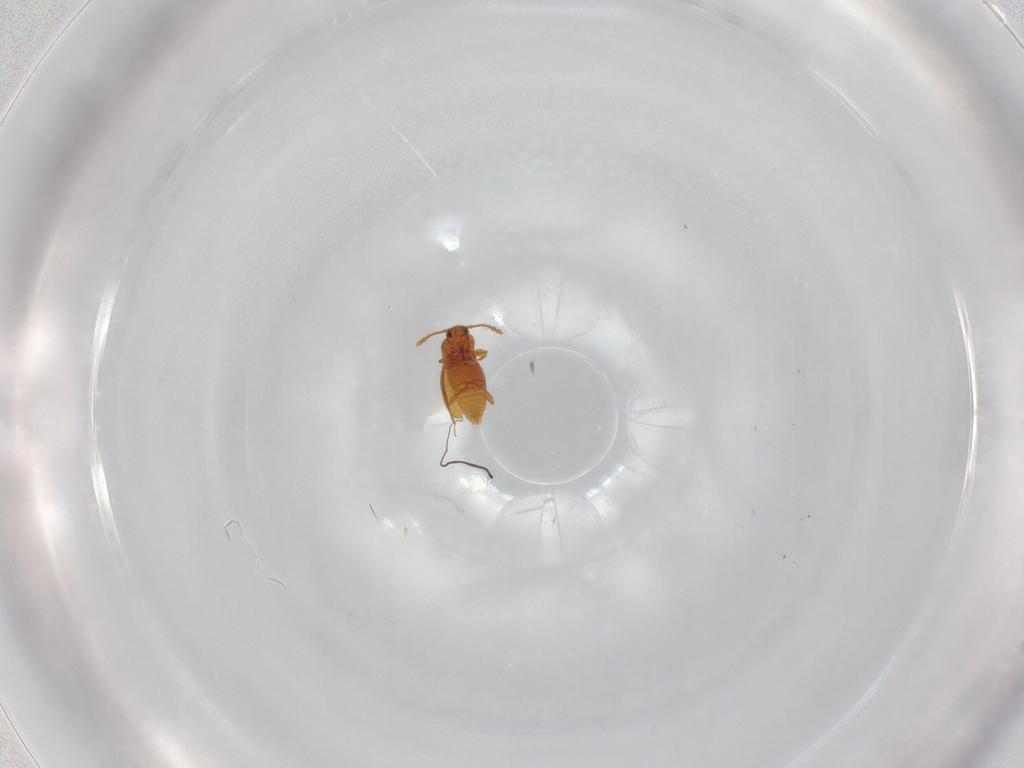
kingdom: Animalia
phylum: Arthropoda
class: Insecta
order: Coleoptera
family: Staphylinidae
